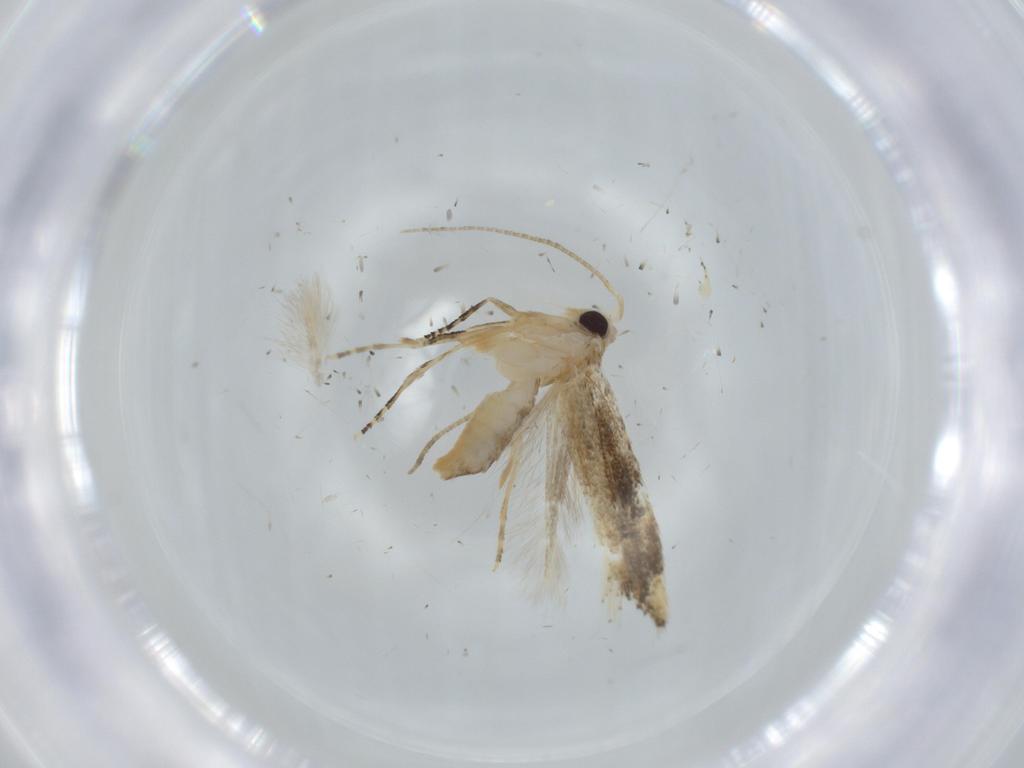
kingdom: Animalia
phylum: Arthropoda
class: Insecta
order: Lepidoptera
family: Bucculatricidae
